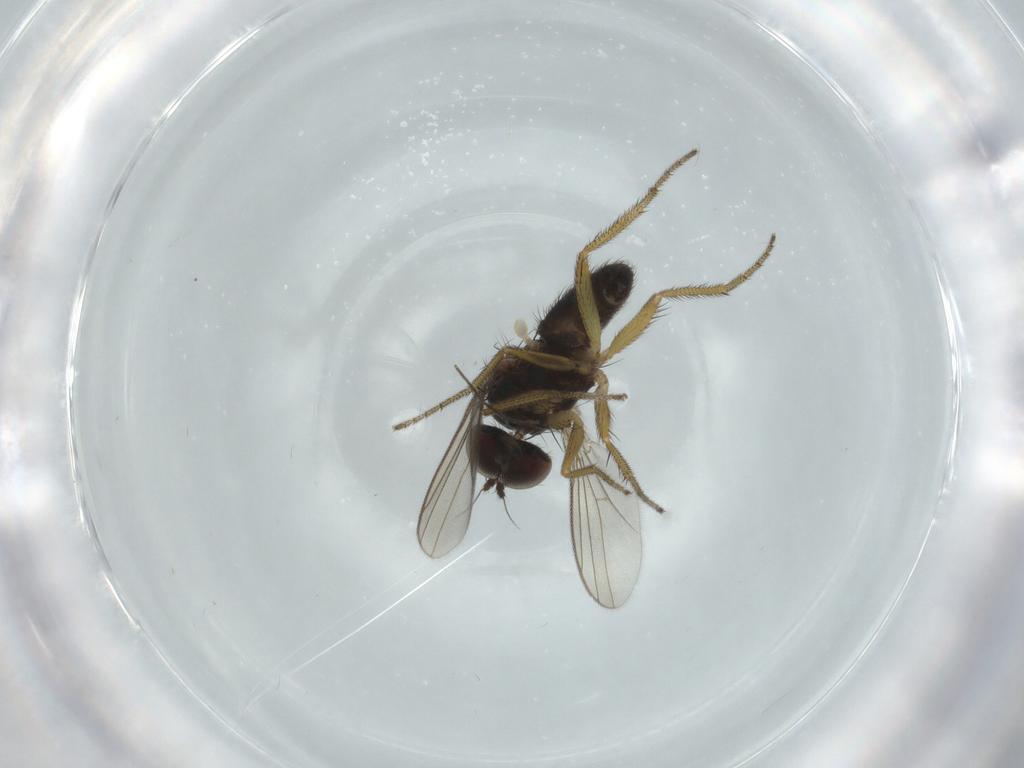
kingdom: Animalia
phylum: Arthropoda
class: Insecta
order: Diptera
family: Dolichopodidae
